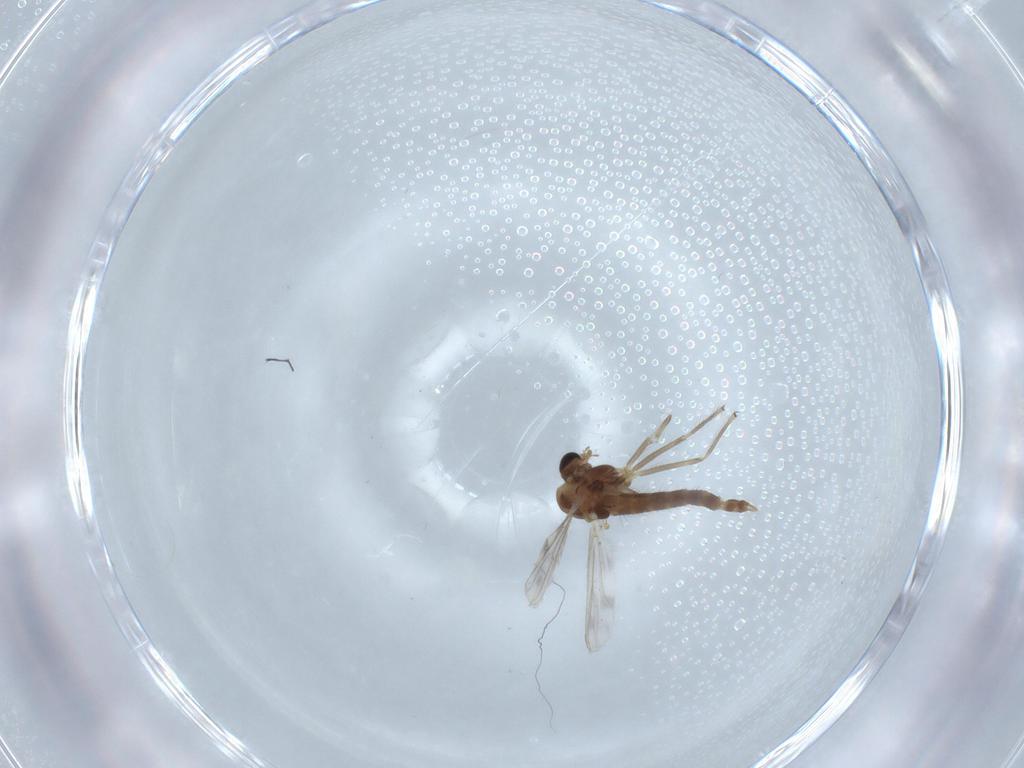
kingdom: Animalia
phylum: Arthropoda
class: Insecta
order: Diptera
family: Chironomidae
